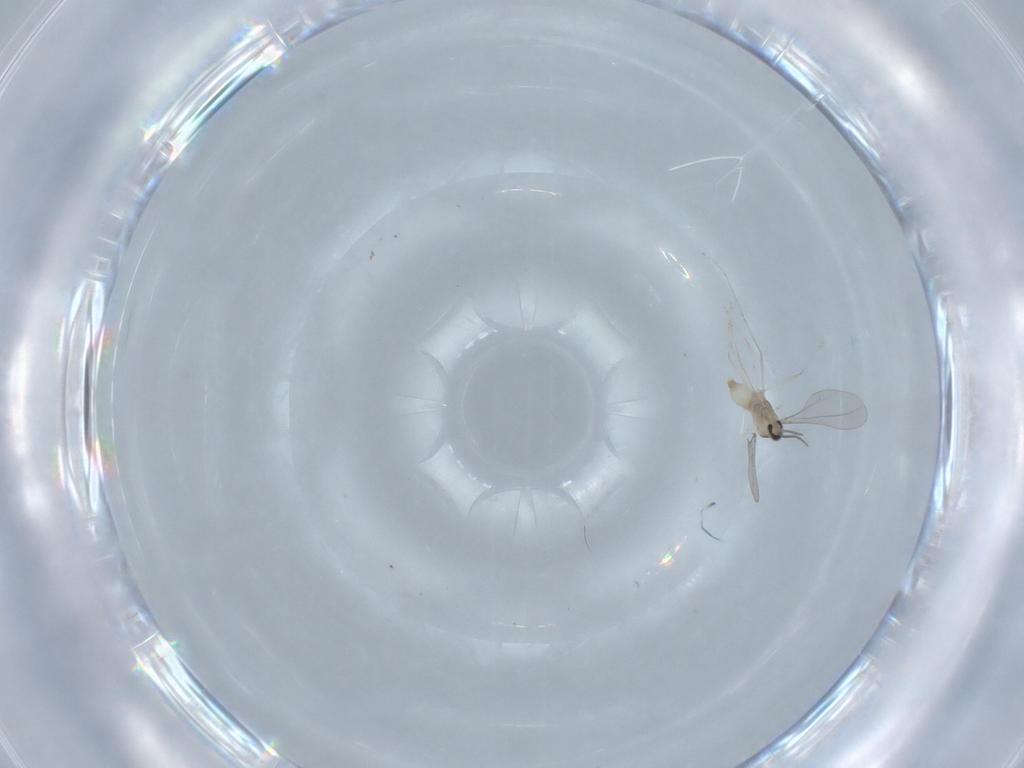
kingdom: Animalia
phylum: Arthropoda
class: Insecta
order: Diptera
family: Cecidomyiidae
